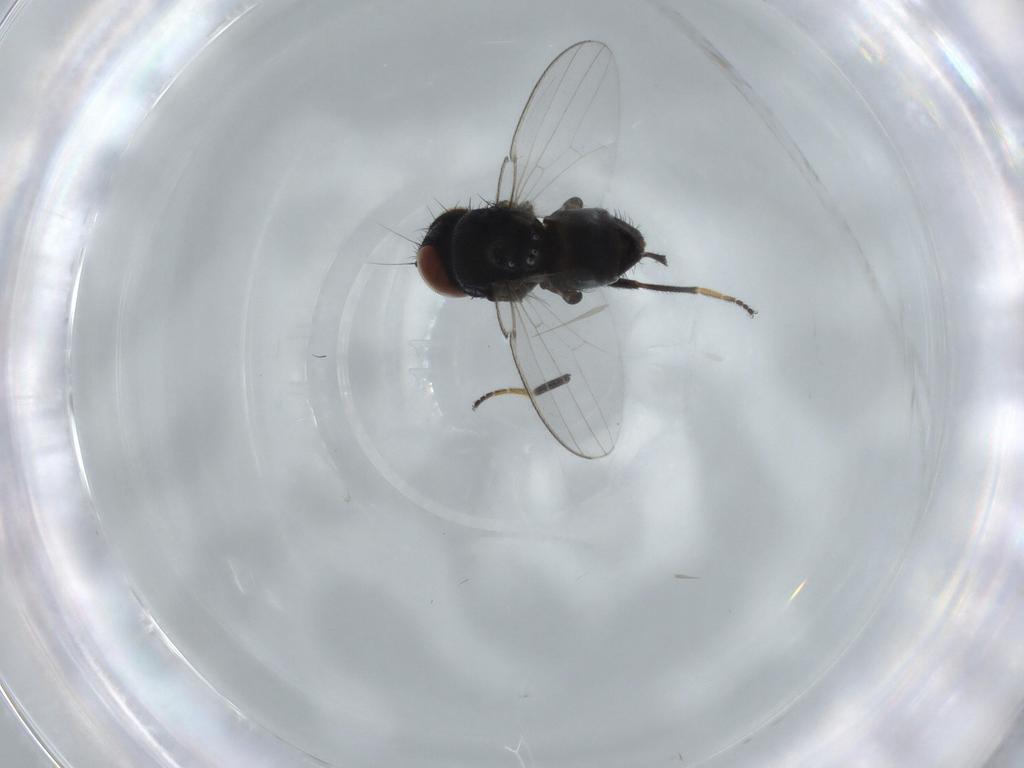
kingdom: Animalia
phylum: Arthropoda
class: Insecta
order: Diptera
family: Milichiidae
